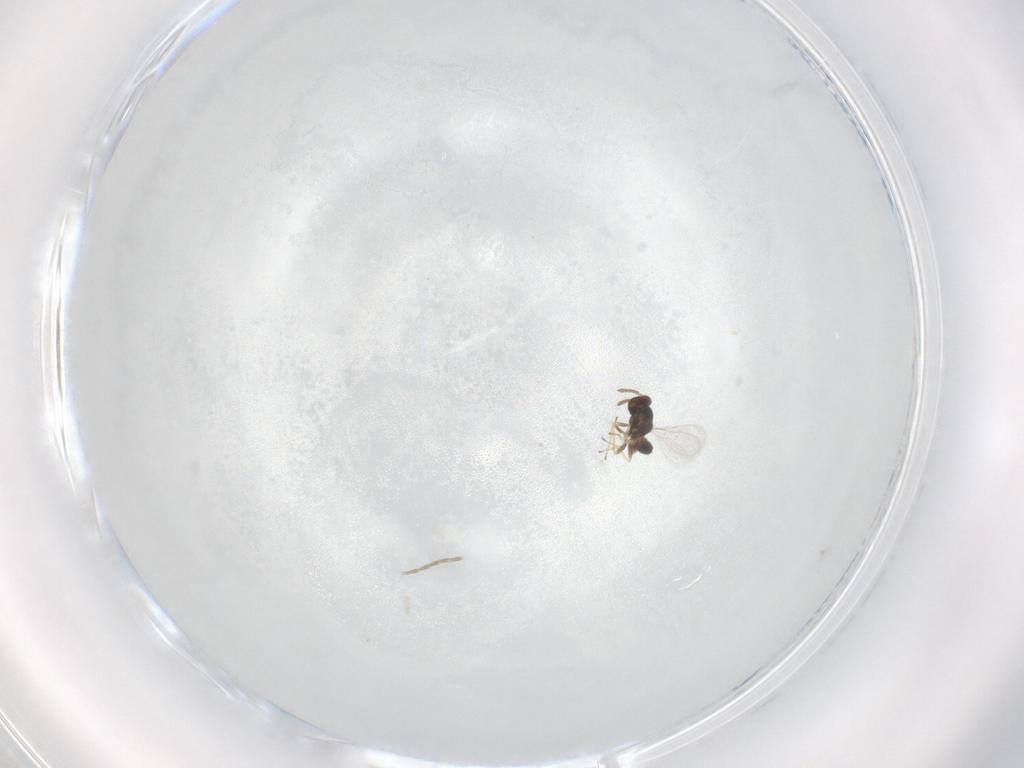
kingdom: Animalia
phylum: Arthropoda
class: Insecta
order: Hymenoptera
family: Eulophidae
